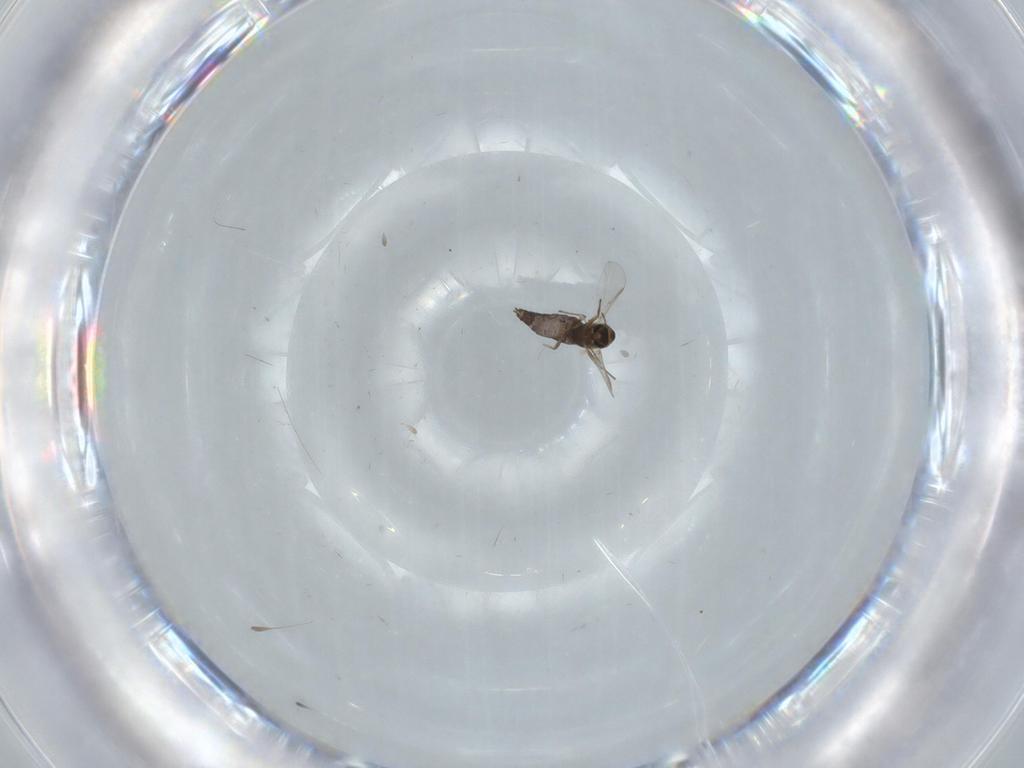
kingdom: Animalia
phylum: Arthropoda
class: Insecta
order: Diptera
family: Chironomidae
